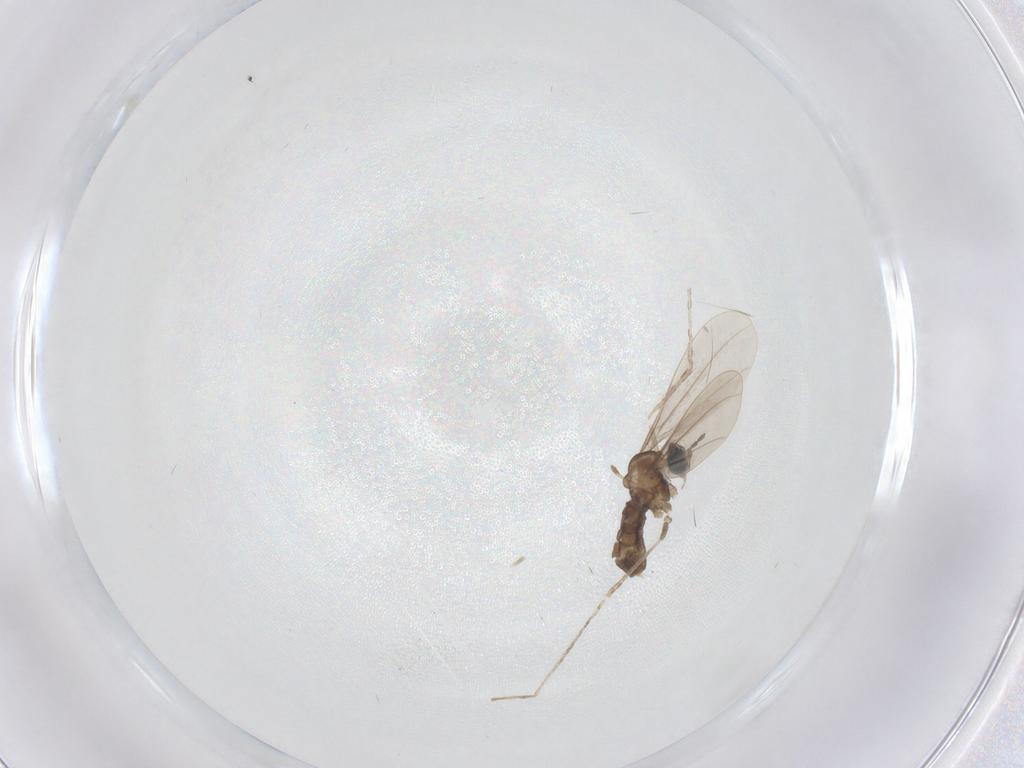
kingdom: Animalia
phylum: Arthropoda
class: Insecta
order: Diptera
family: Cecidomyiidae
